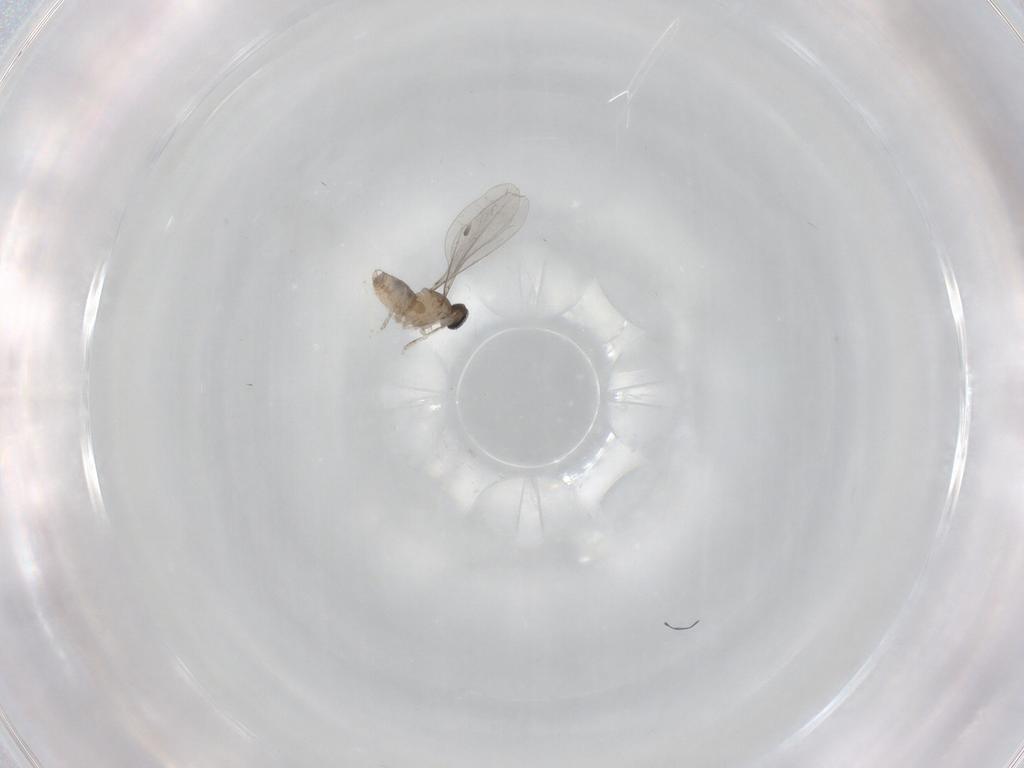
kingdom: Animalia
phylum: Arthropoda
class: Insecta
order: Diptera
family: Cecidomyiidae
